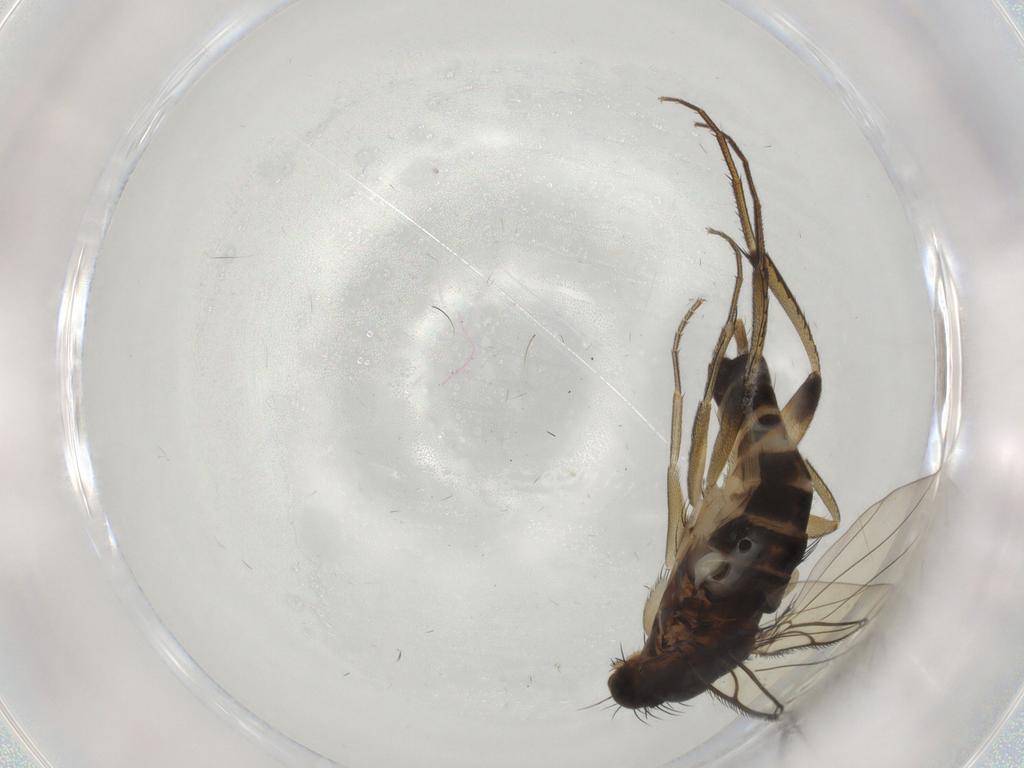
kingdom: Animalia
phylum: Arthropoda
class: Insecta
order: Diptera
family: Phoridae
